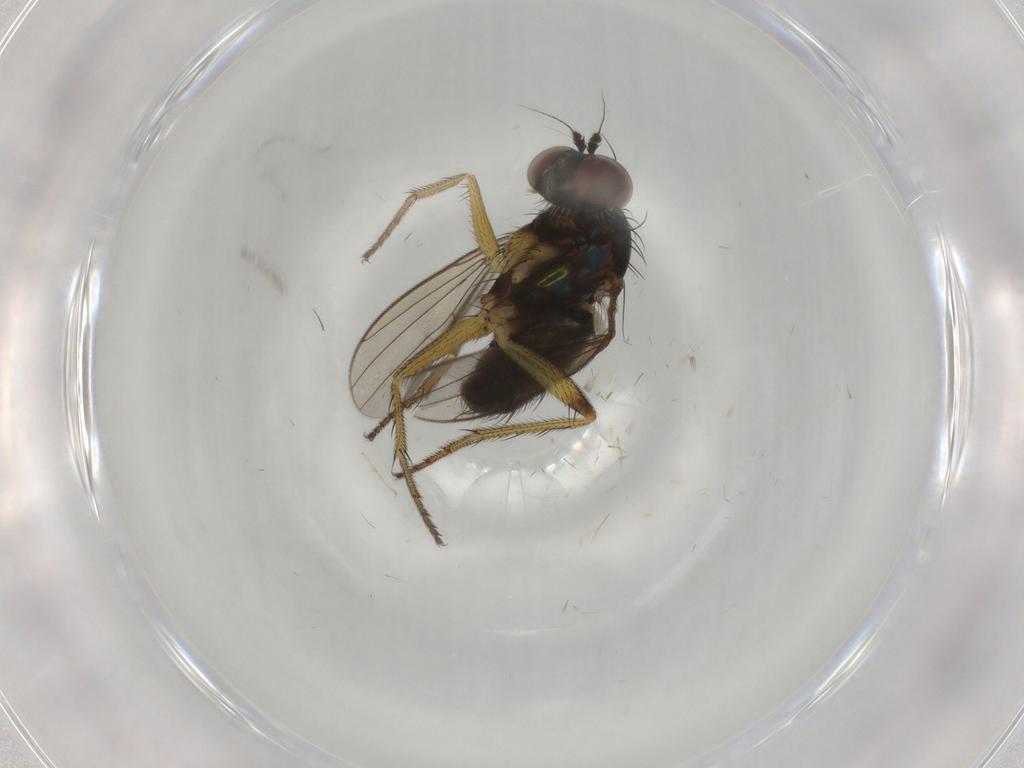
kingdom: Animalia
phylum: Arthropoda
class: Insecta
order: Diptera
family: Dolichopodidae
